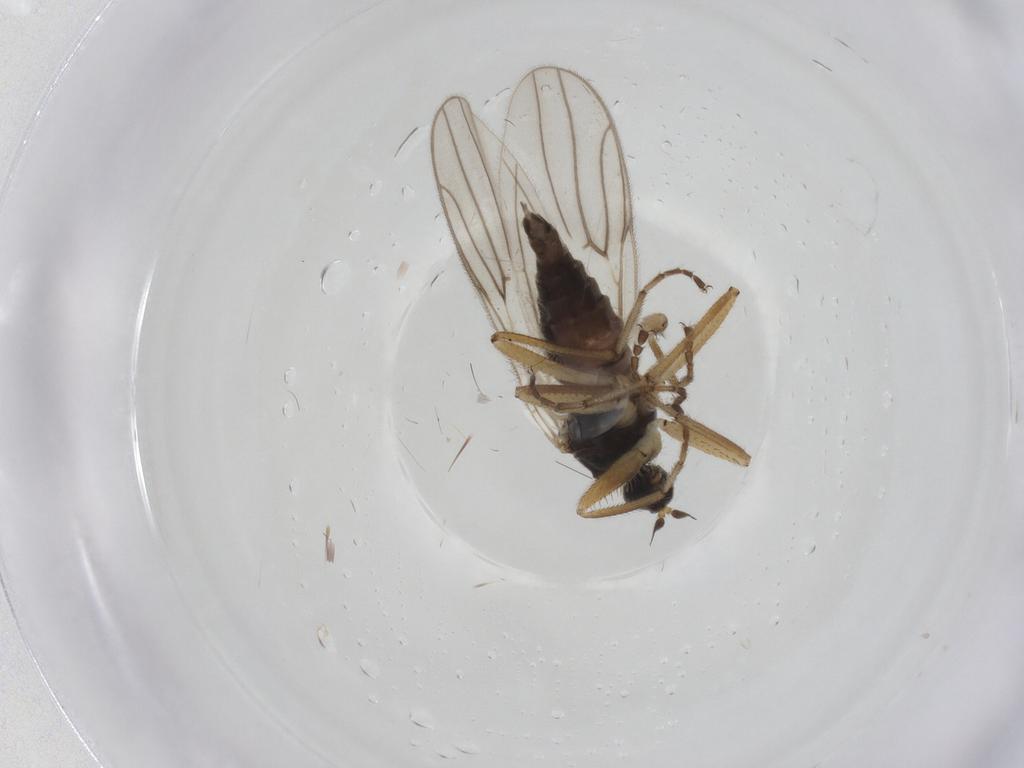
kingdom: Animalia
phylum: Arthropoda
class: Insecta
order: Diptera
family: Hybotidae
